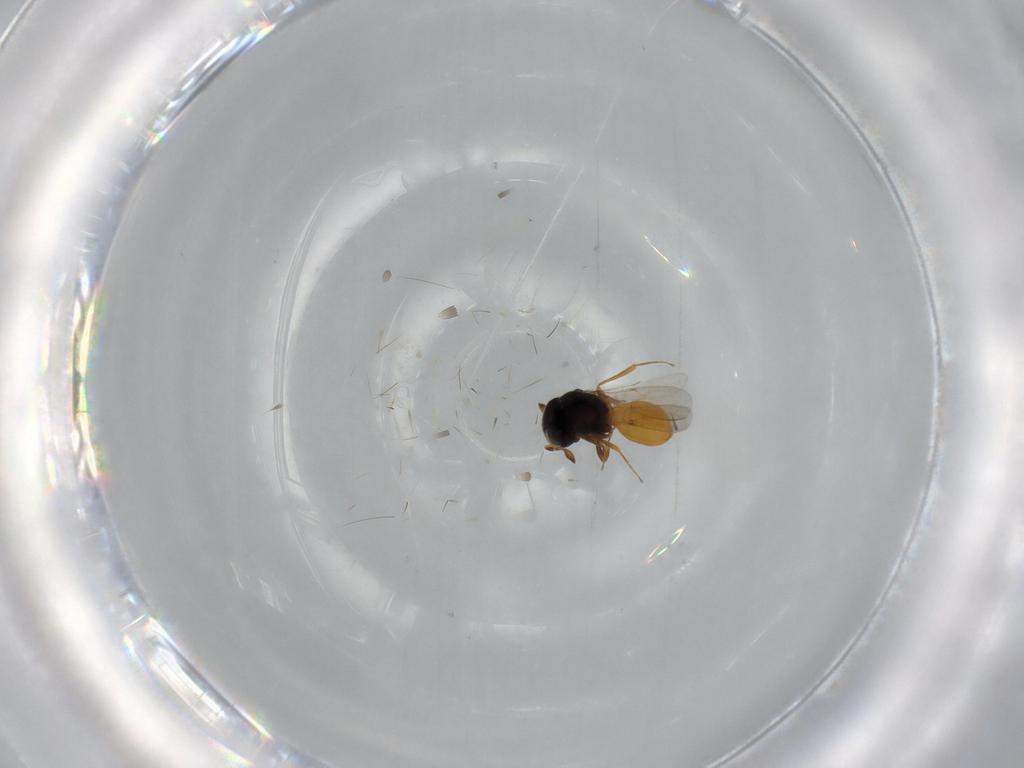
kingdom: Animalia
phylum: Arthropoda
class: Insecta
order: Hymenoptera
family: Scelionidae
